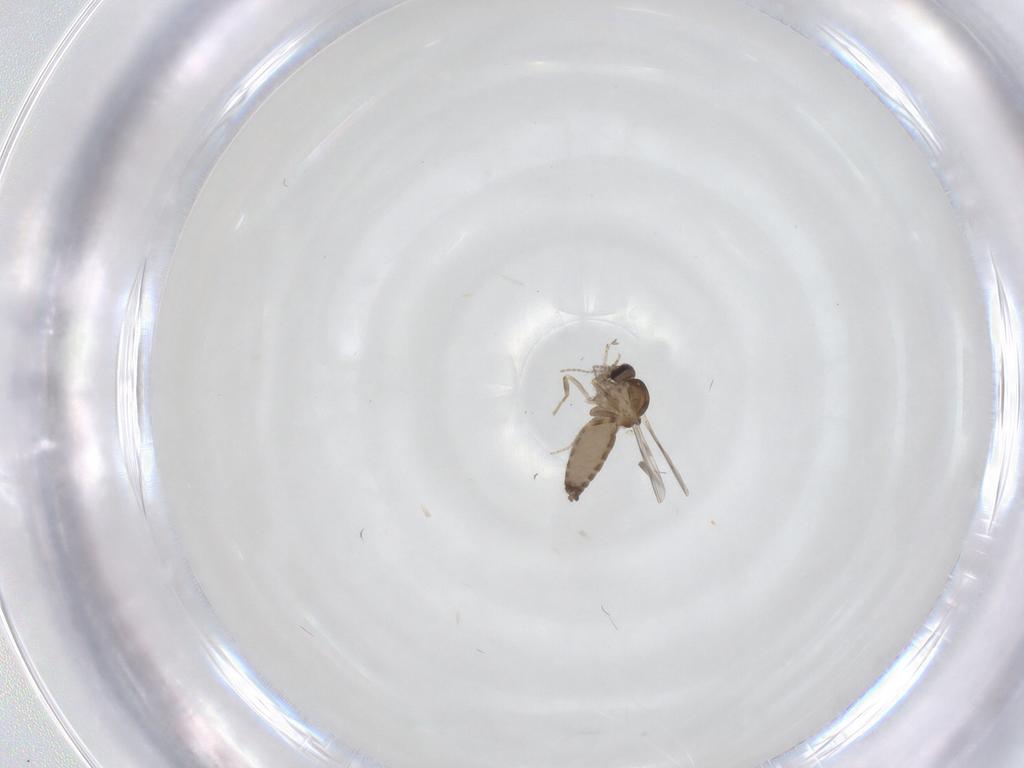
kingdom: Animalia
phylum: Arthropoda
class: Insecta
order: Diptera
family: Ceratopogonidae
